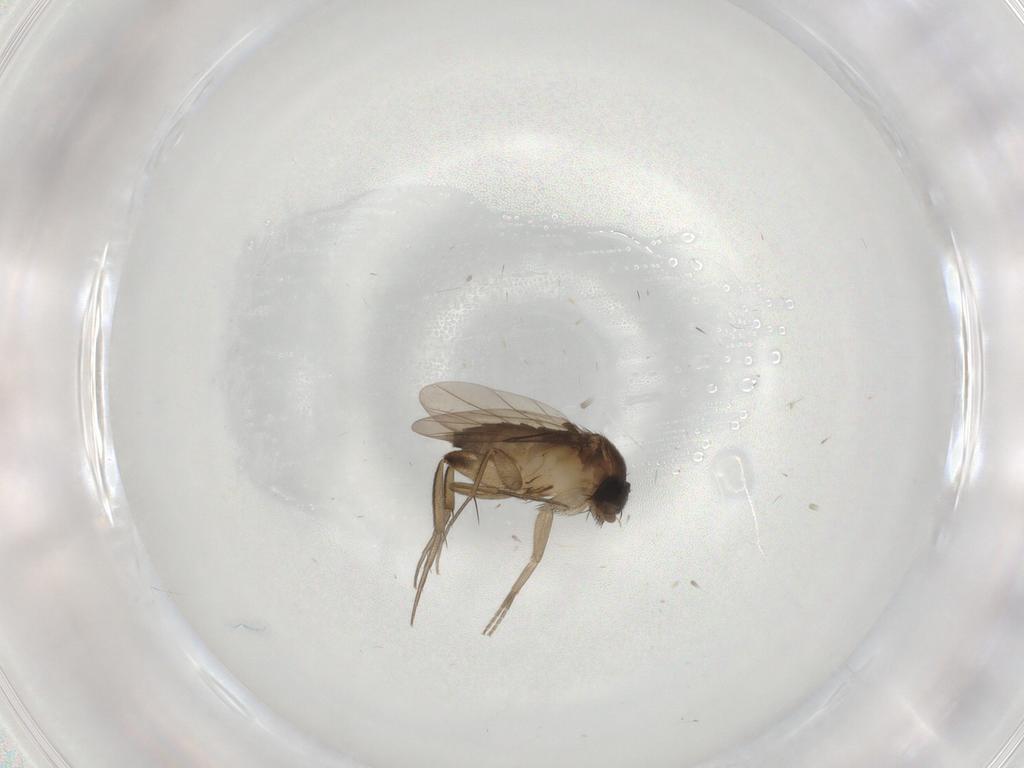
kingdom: Animalia
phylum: Arthropoda
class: Insecta
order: Diptera
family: Phoridae
